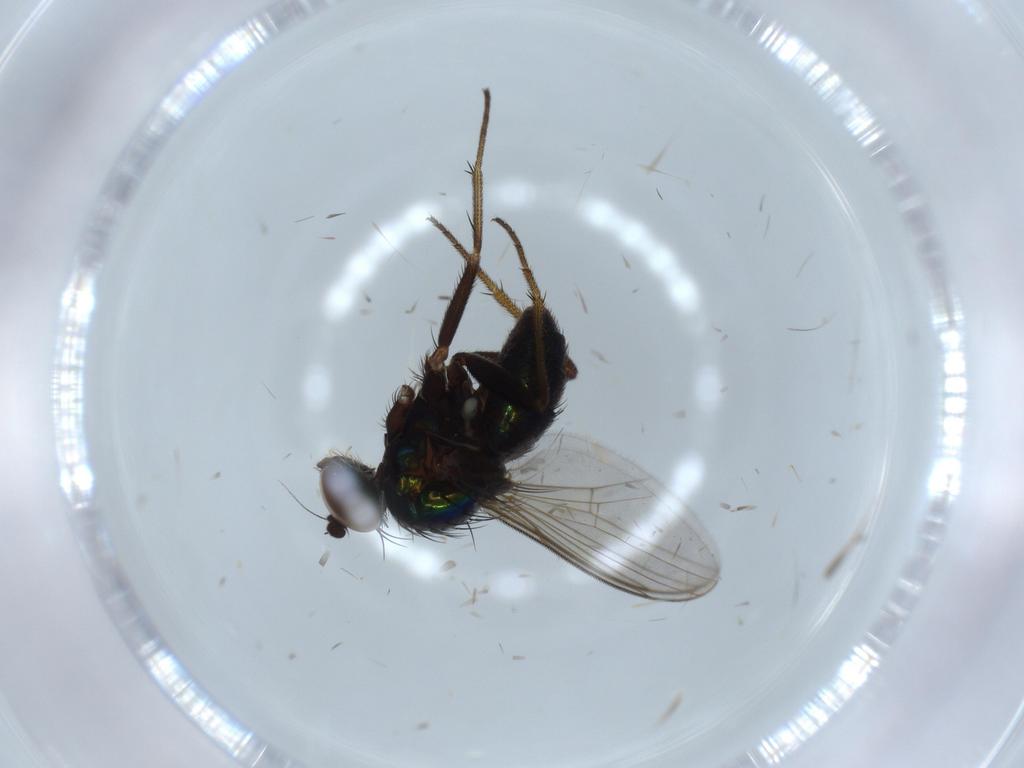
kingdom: Animalia
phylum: Arthropoda
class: Insecta
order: Diptera
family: Dolichopodidae
